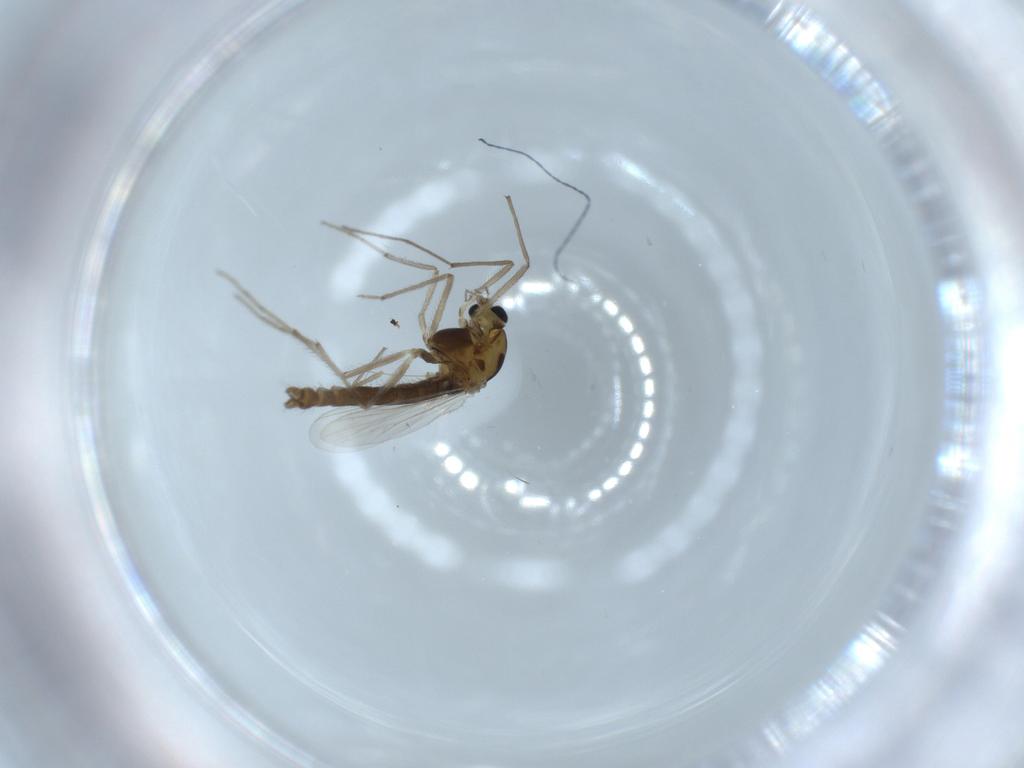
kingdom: Animalia
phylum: Arthropoda
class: Insecta
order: Diptera
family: Chironomidae
